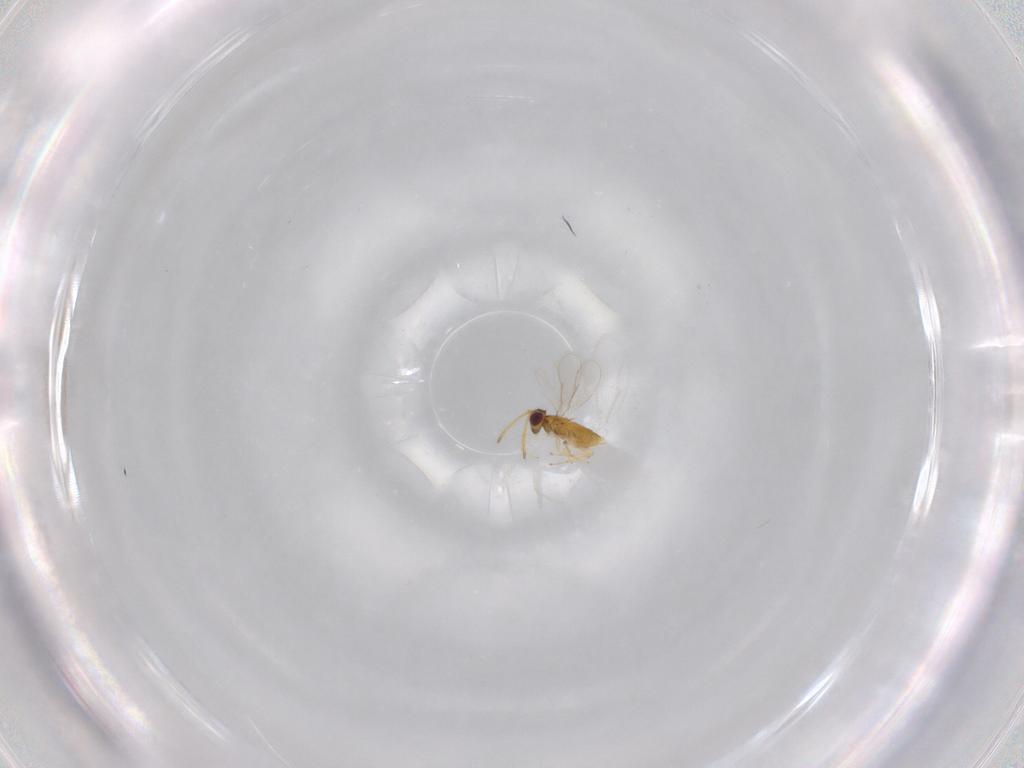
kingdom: Animalia
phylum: Arthropoda
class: Insecta
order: Hymenoptera
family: Aphelinidae
